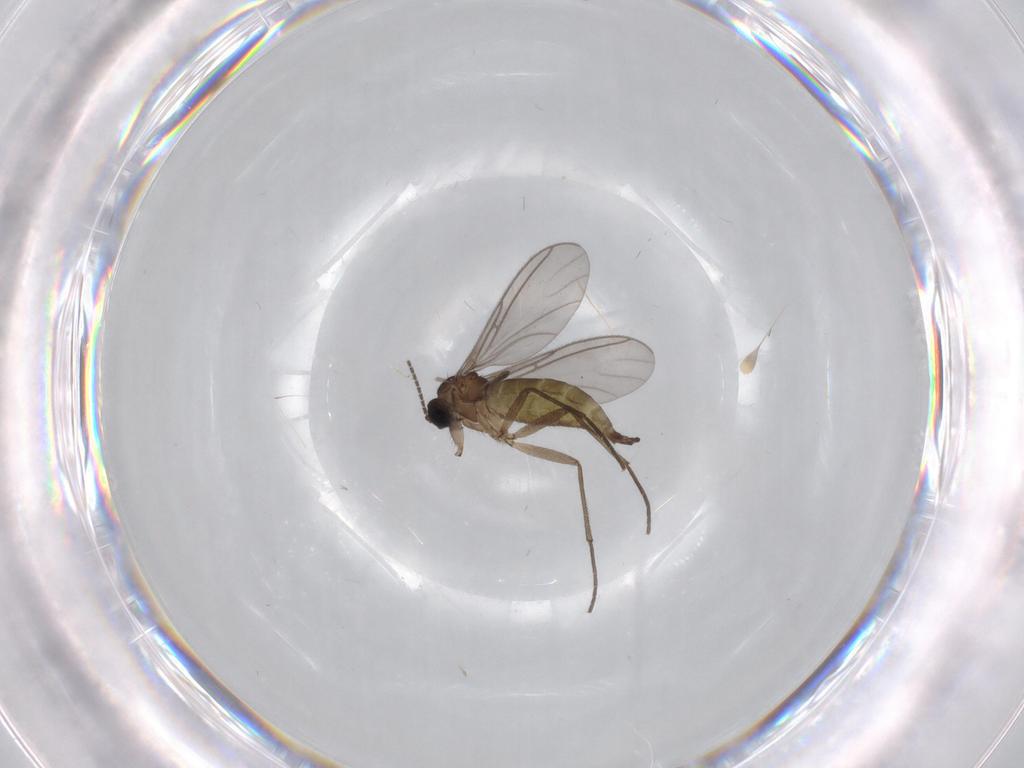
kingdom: Animalia
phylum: Arthropoda
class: Insecta
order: Diptera
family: Sciaridae
